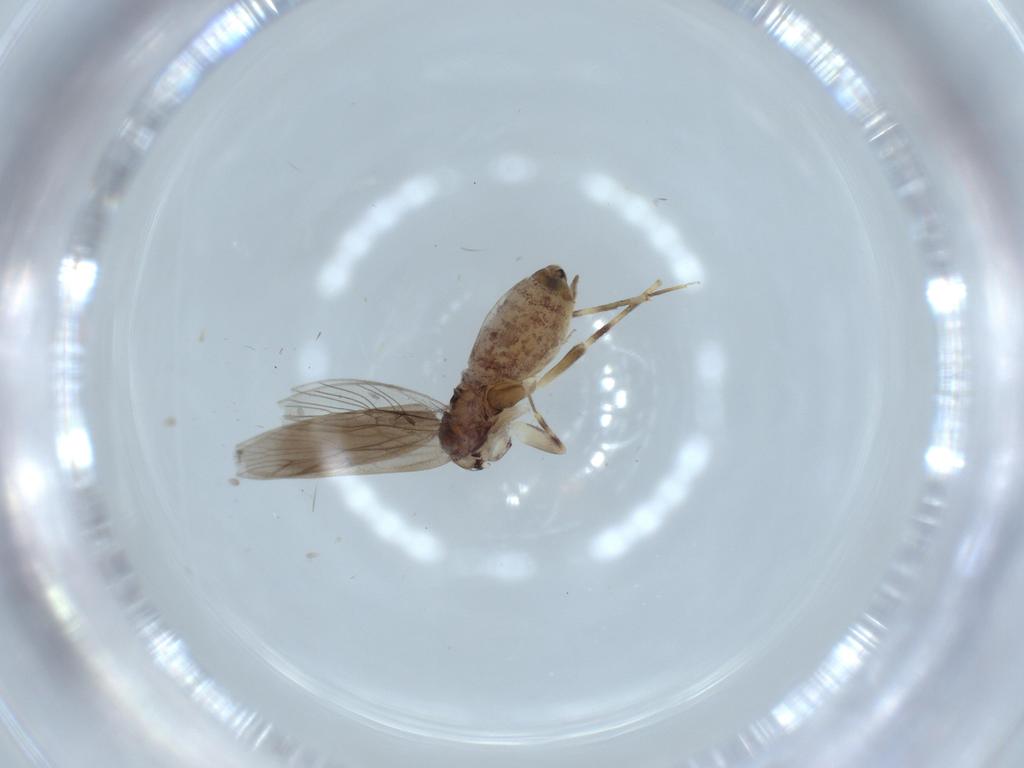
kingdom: Animalia
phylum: Arthropoda
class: Insecta
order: Psocodea
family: Lepidopsocidae
